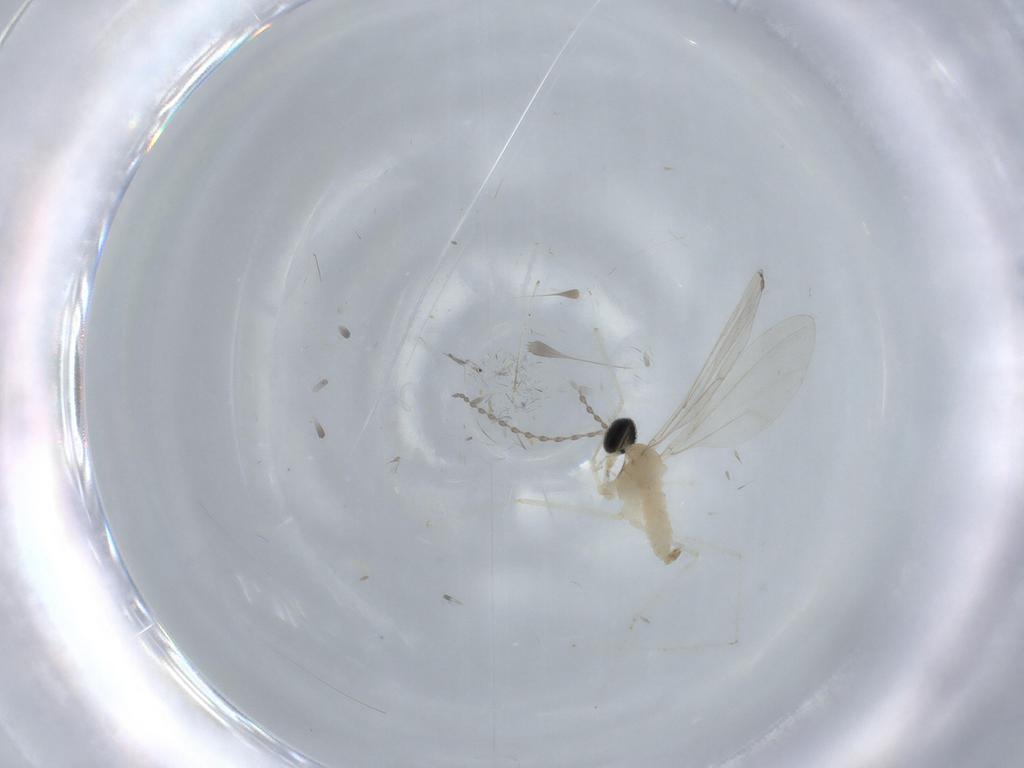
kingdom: Animalia
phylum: Arthropoda
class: Insecta
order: Diptera
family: Cecidomyiidae
